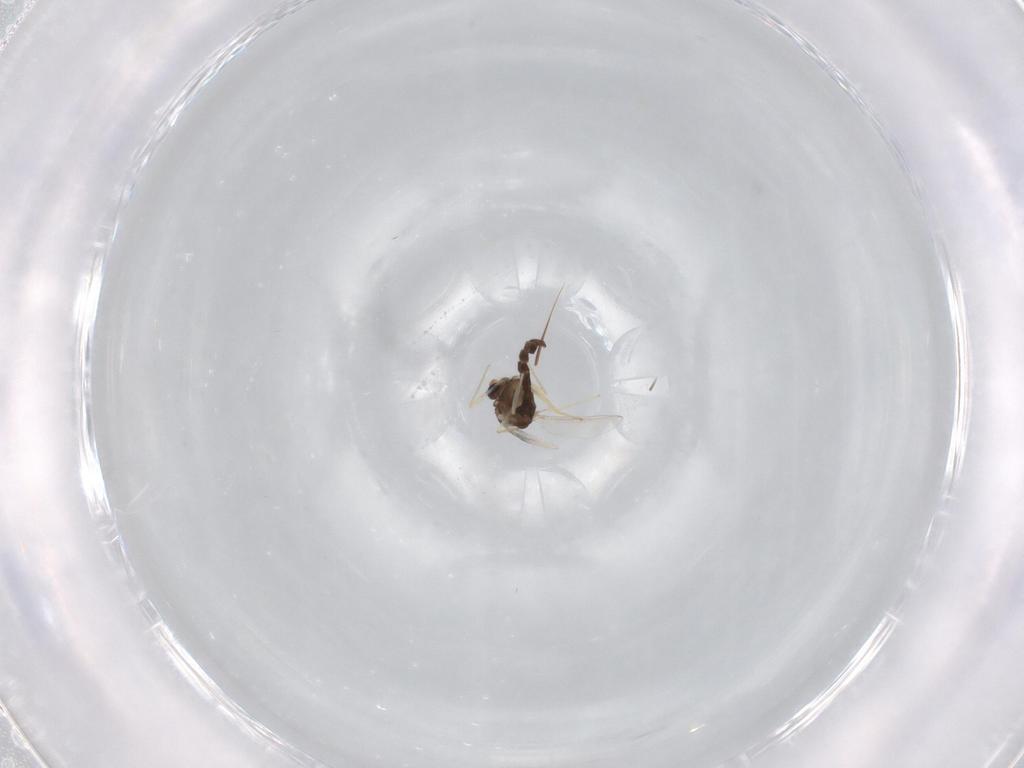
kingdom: Animalia
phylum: Arthropoda
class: Insecta
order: Diptera
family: Chironomidae
